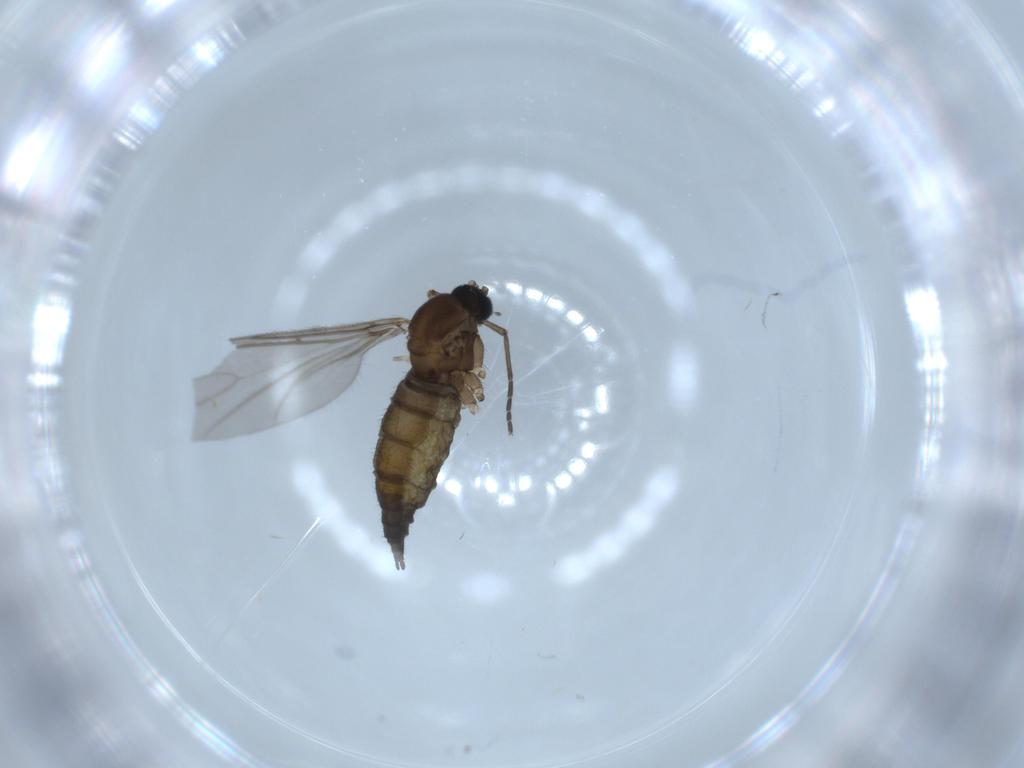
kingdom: Animalia
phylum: Arthropoda
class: Insecta
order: Diptera
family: Sciaridae
